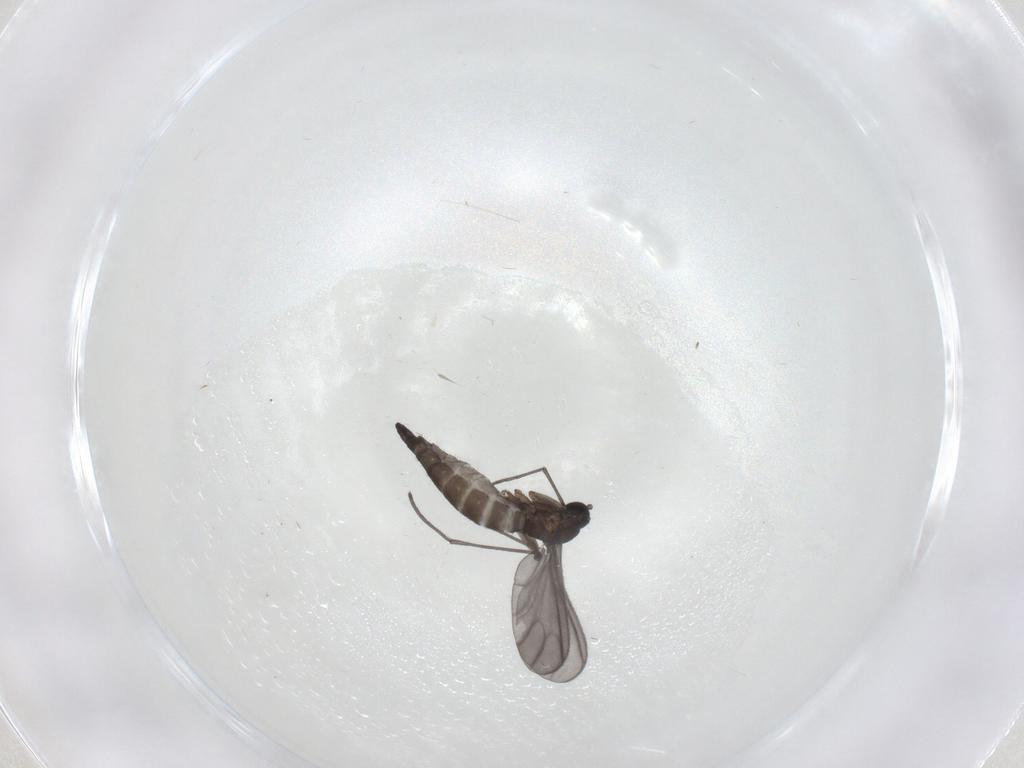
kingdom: Animalia
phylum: Arthropoda
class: Insecta
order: Diptera
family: Sciaridae
